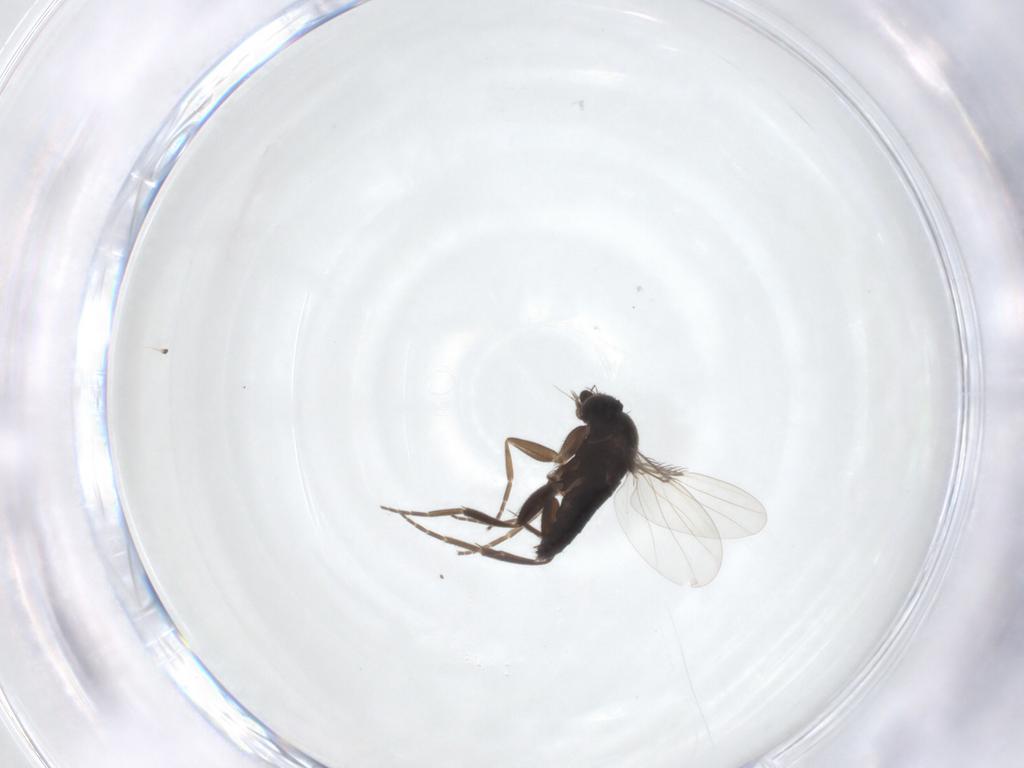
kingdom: Animalia
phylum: Arthropoda
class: Insecta
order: Diptera
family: Phoridae
